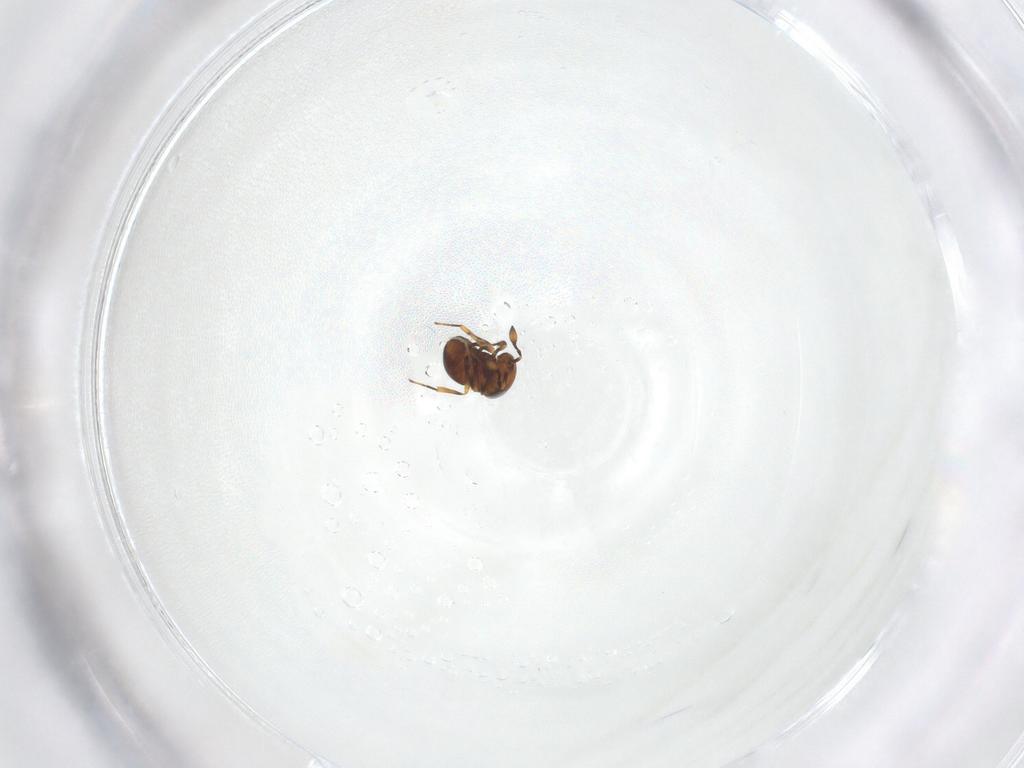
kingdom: Animalia
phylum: Arthropoda
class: Insecta
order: Hymenoptera
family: Scelionidae
